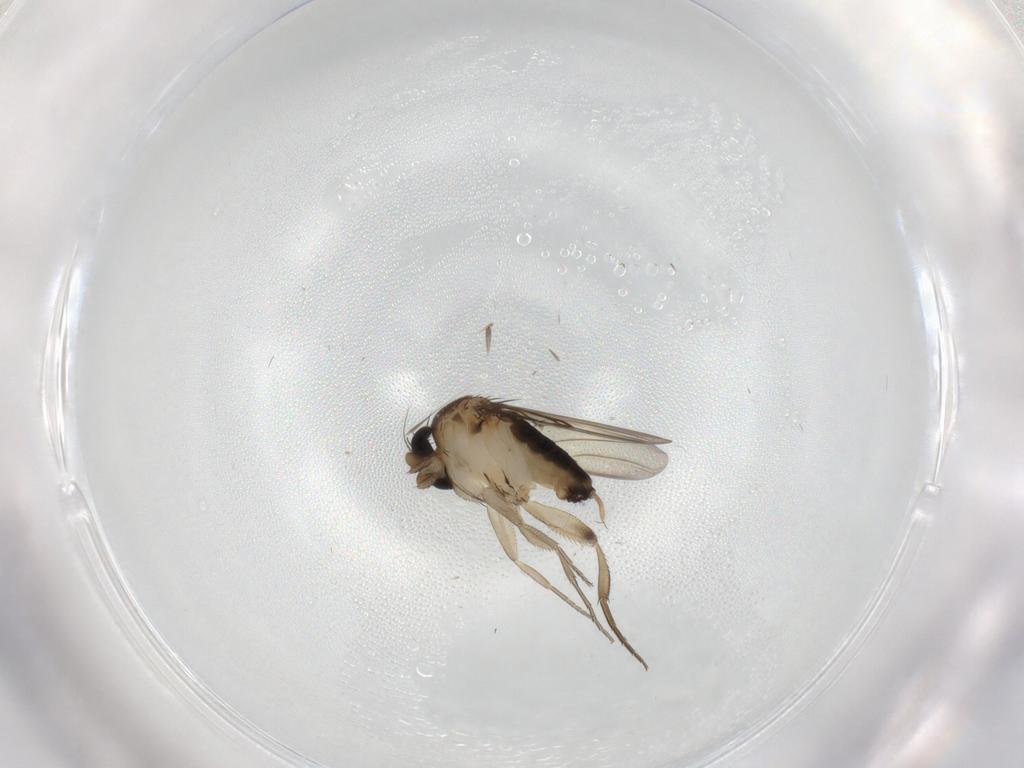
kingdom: Animalia
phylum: Arthropoda
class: Insecta
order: Diptera
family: Phoridae
